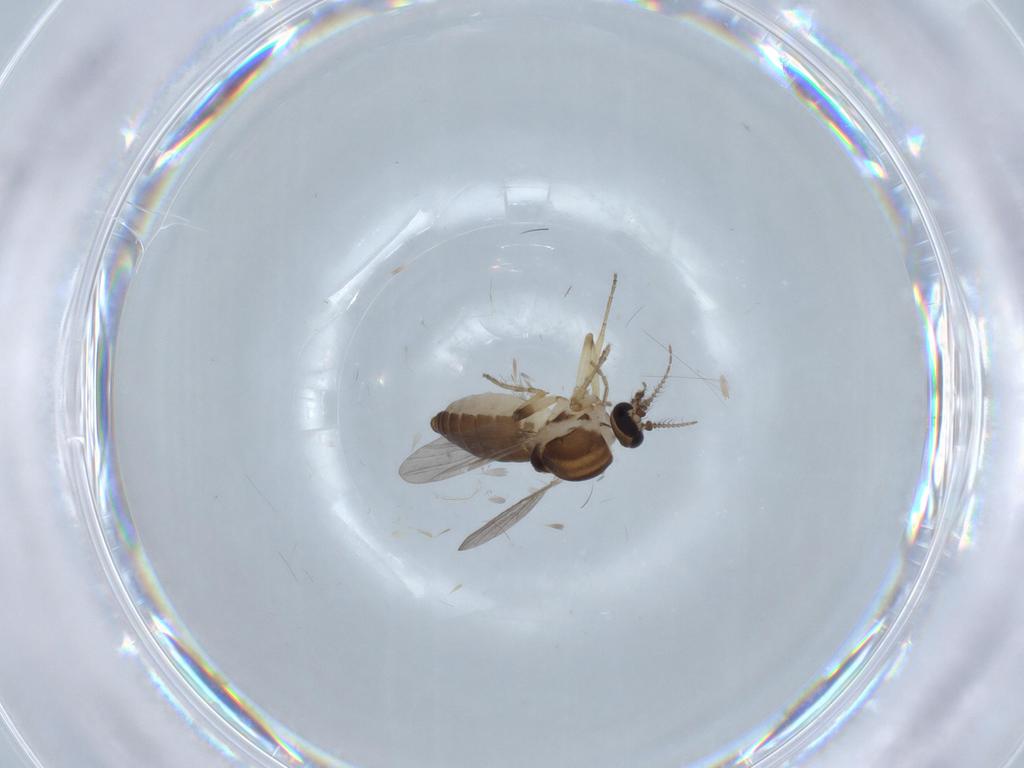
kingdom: Animalia
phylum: Arthropoda
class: Insecta
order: Diptera
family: Ceratopogonidae
